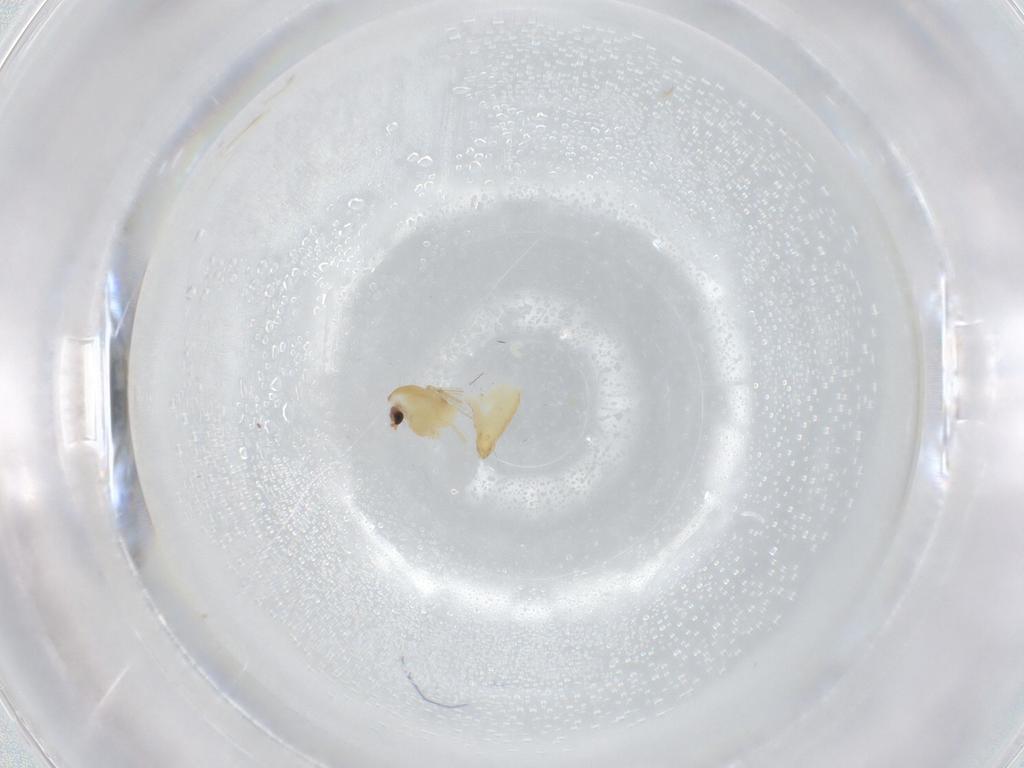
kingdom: Animalia
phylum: Arthropoda
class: Insecta
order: Diptera
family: Chironomidae
